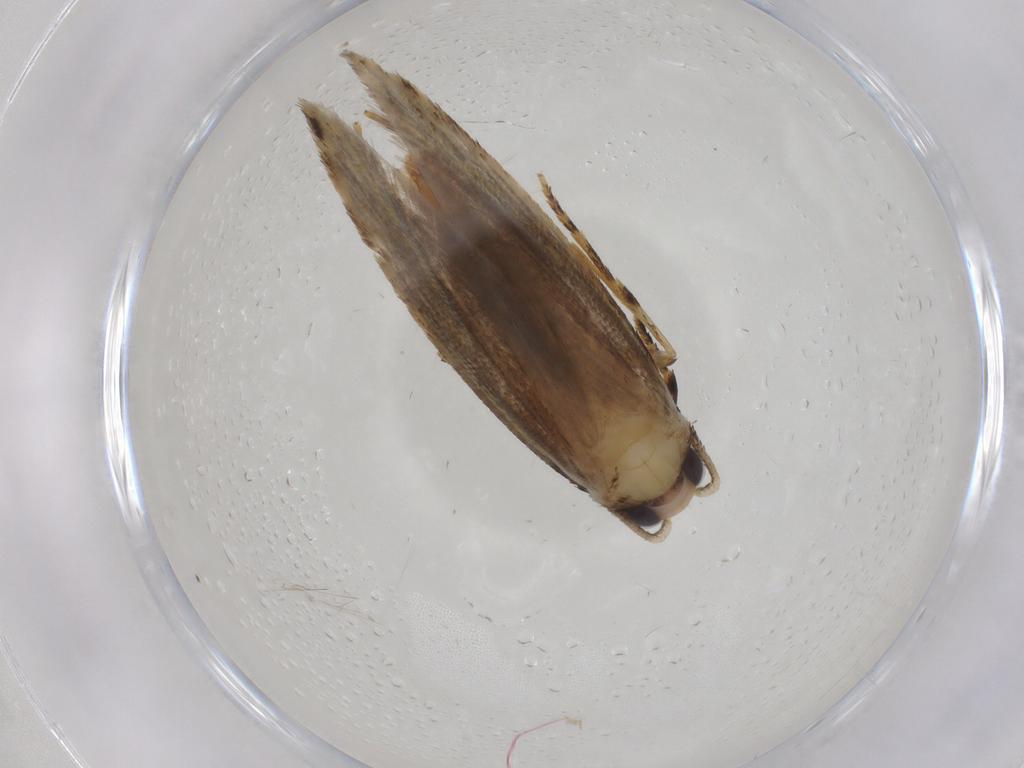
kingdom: Animalia
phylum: Arthropoda
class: Insecta
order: Lepidoptera
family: Tineidae
